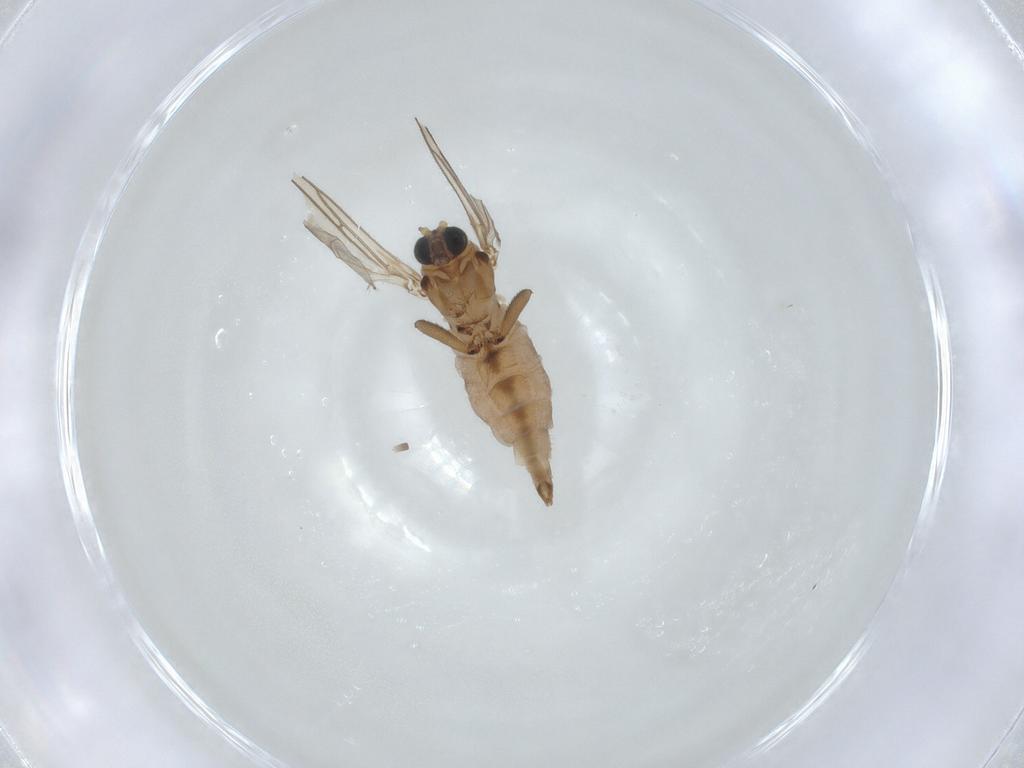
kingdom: Animalia
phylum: Arthropoda
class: Insecta
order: Diptera
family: Sciaridae
